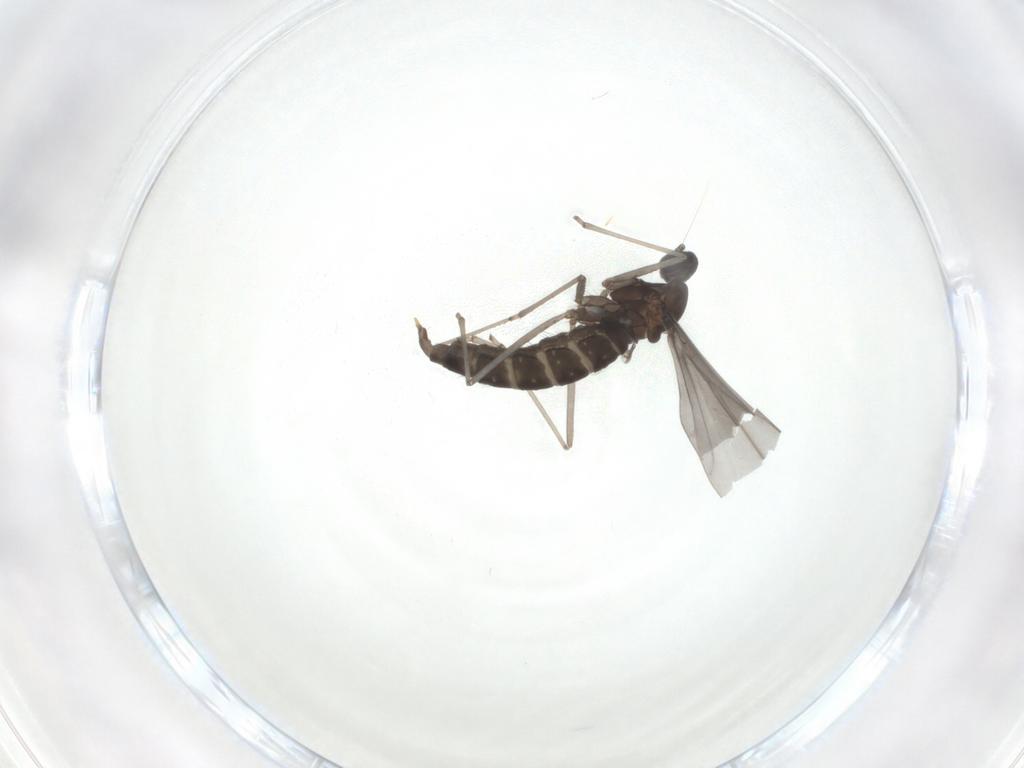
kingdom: Animalia
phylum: Arthropoda
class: Insecta
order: Diptera
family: Cecidomyiidae
